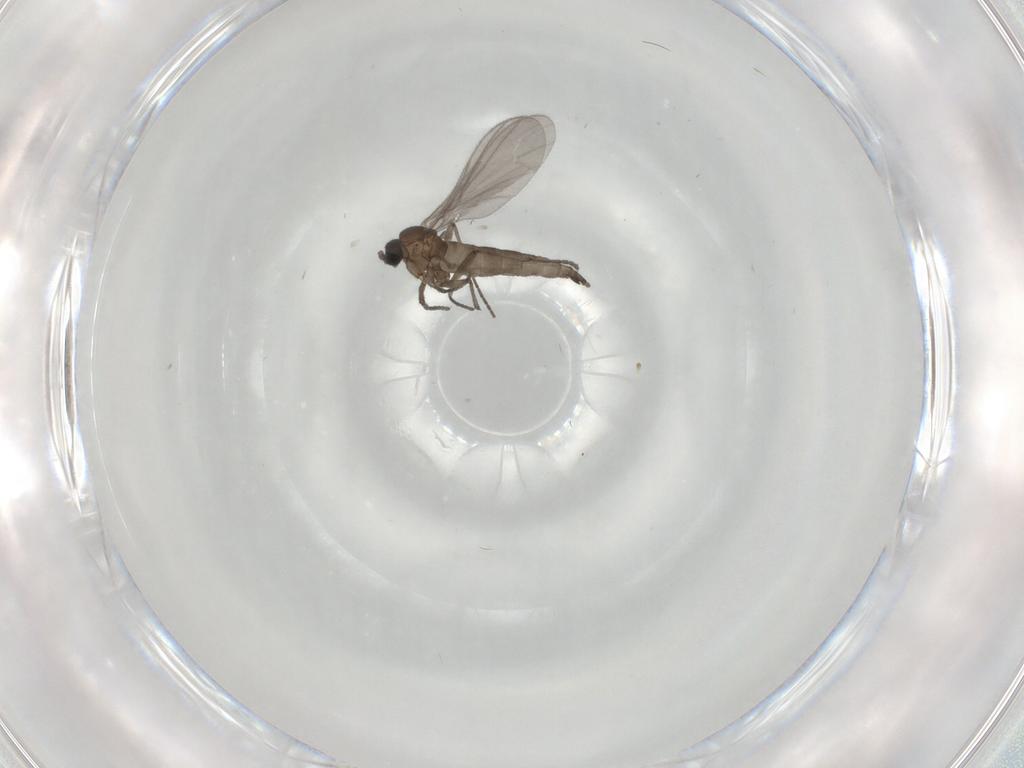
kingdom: Animalia
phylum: Arthropoda
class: Insecta
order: Diptera
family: Sciaridae
